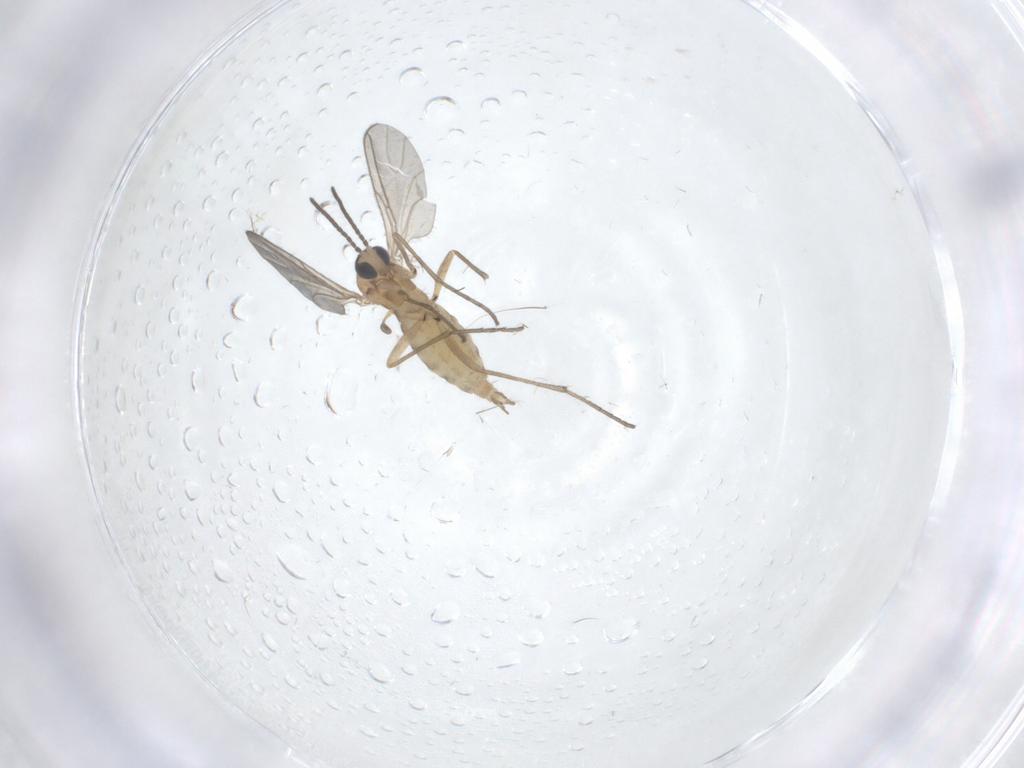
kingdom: Animalia
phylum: Arthropoda
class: Insecta
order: Diptera
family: Sciaridae
